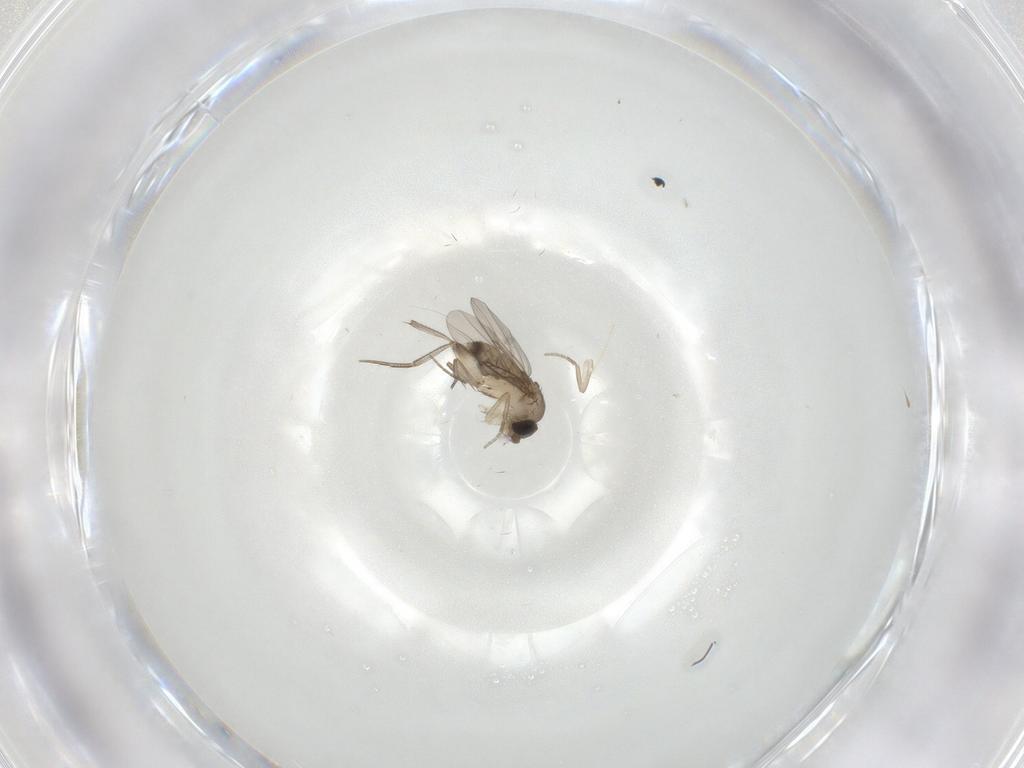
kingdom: Animalia
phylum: Arthropoda
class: Insecta
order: Diptera
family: Phoridae
